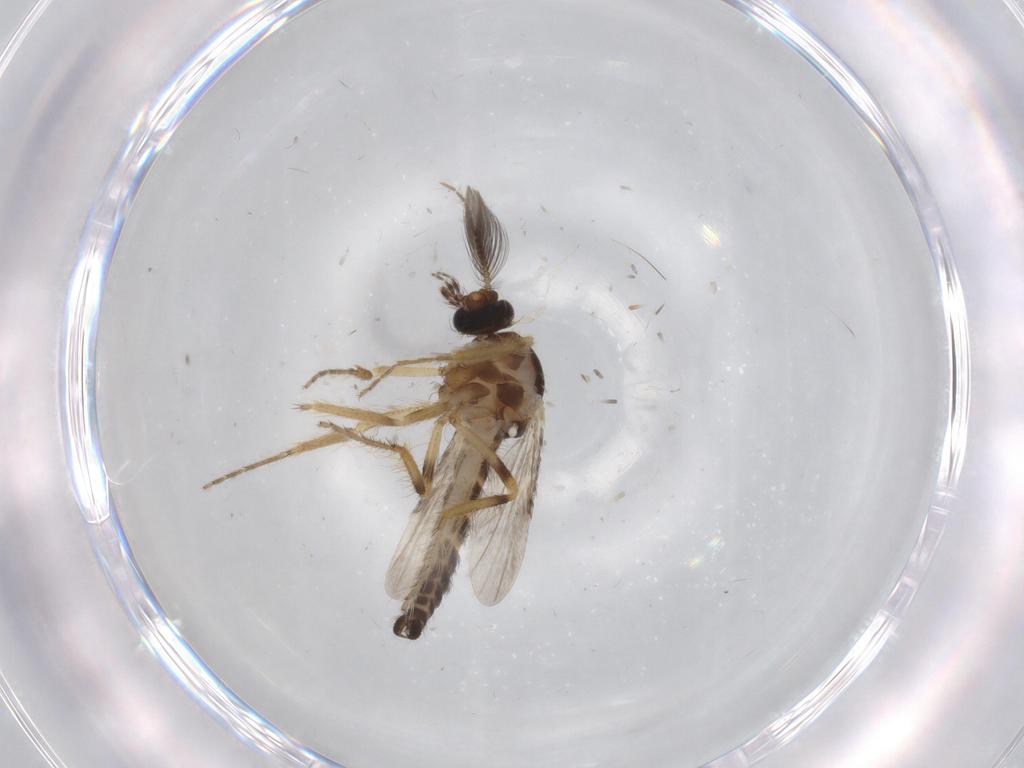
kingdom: Animalia
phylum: Arthropoda
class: Insecta
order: Diptera
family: Ceratopogonidae
